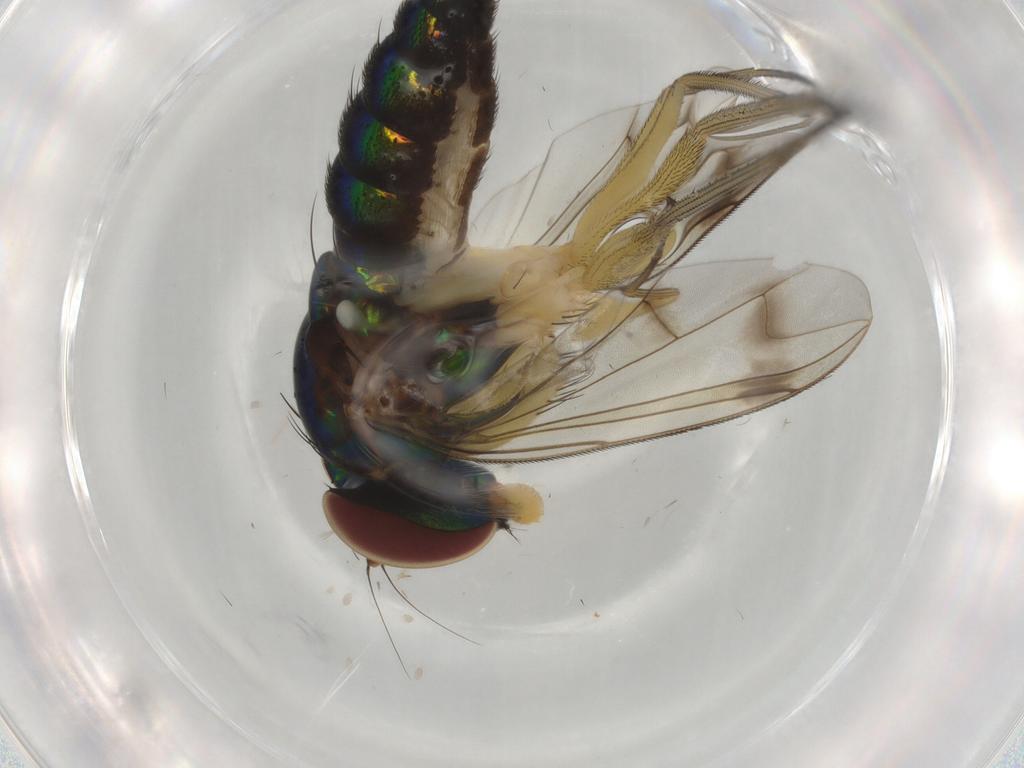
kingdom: Animalia
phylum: Arthropoda
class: Insecta
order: Diptera
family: Dolichopodidae
